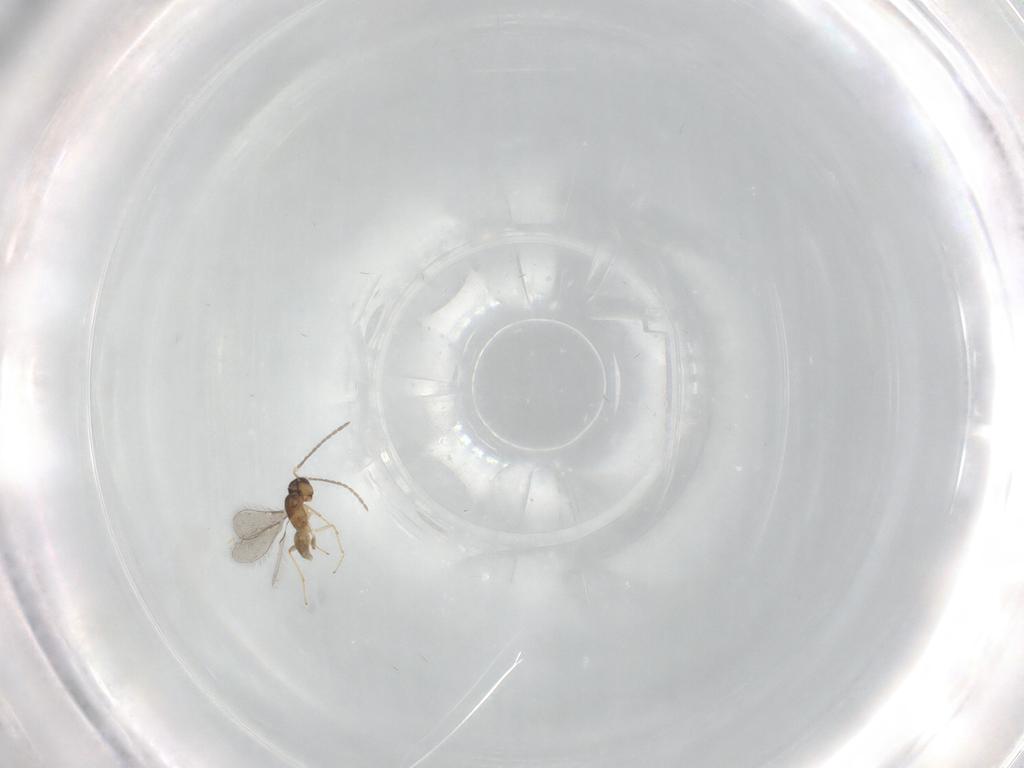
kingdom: Animalia
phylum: Arthropoda
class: Insecta
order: Hymenoptera
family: Mymaridae
